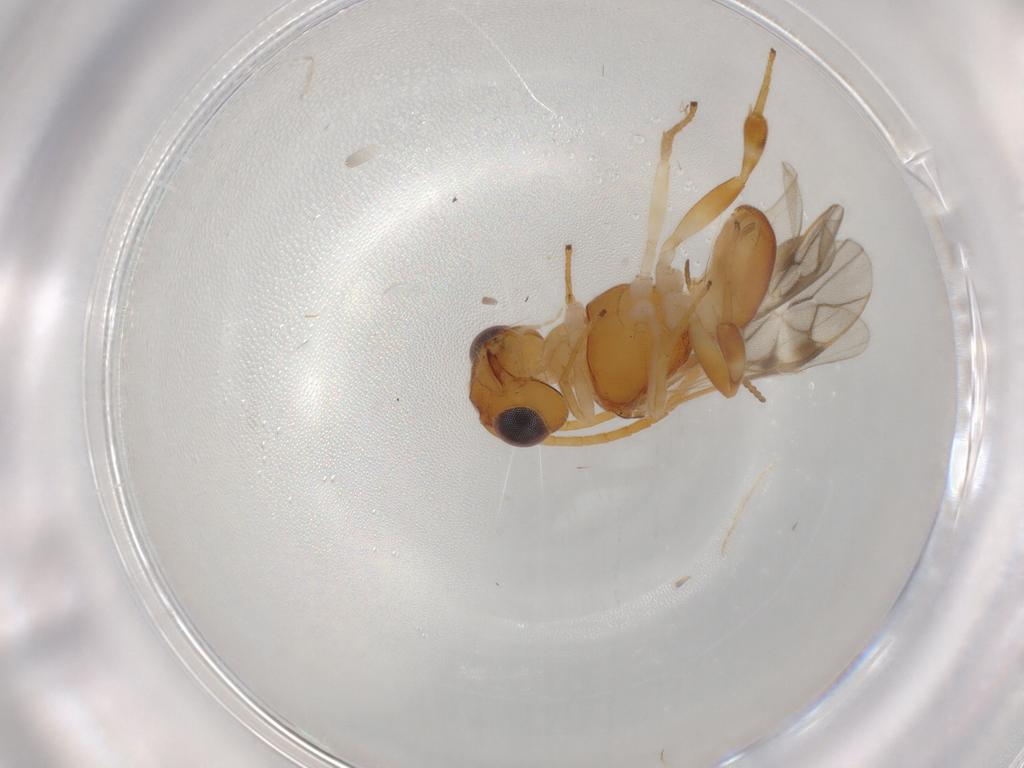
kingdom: Animalia
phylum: Arthropoda
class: Insecta
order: Hymenoptera
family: Braconidae
